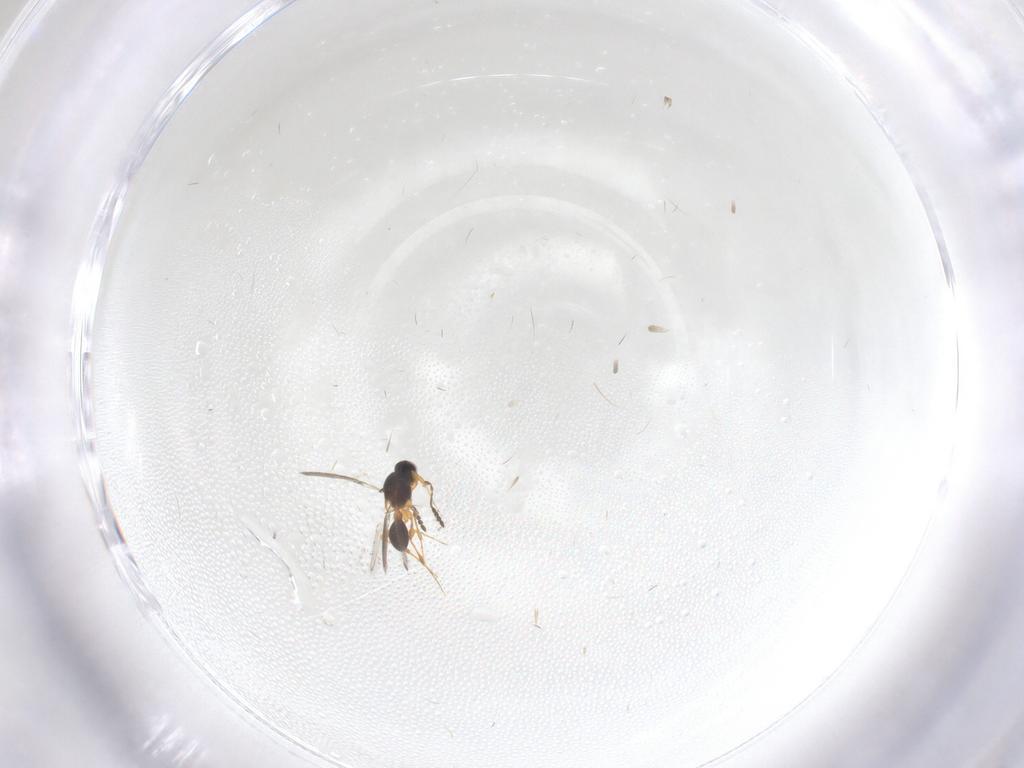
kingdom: Animalia
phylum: Arthropoda
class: Insecta
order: Hymenoptera
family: Platygastridae
